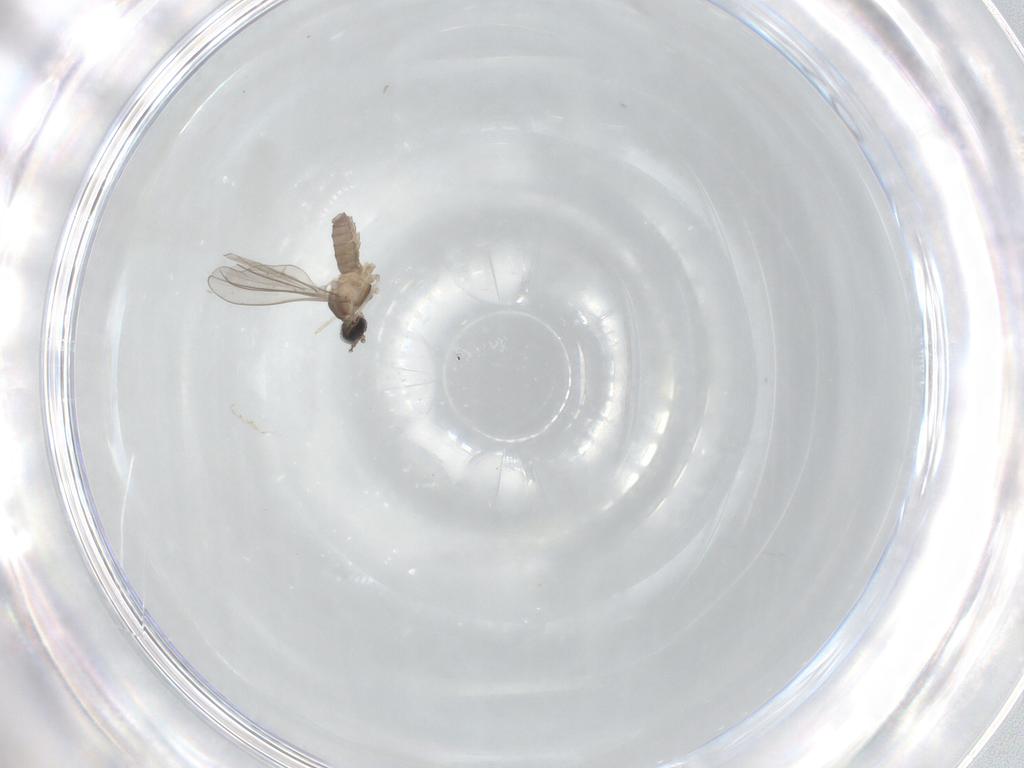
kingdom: Animalia
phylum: Arthropoda
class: Insecta
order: Diptera
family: Cecidomyiidae
